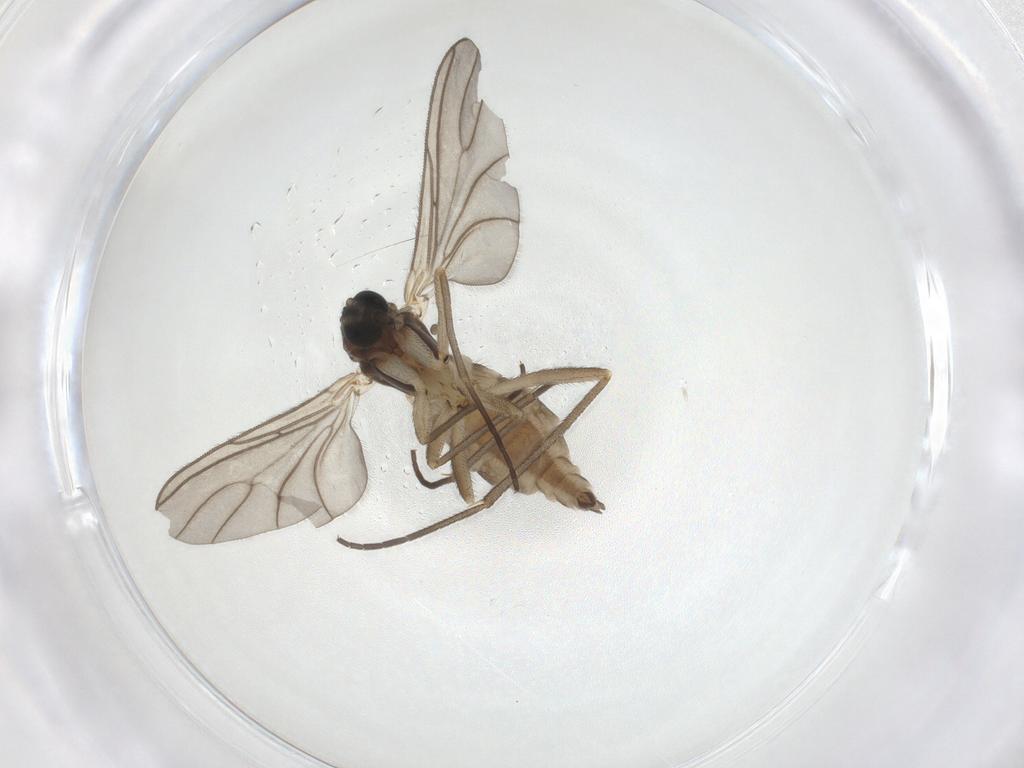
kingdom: Animalia
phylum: Arthropoda
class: Insecta
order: Diptera
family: Sciaridae
